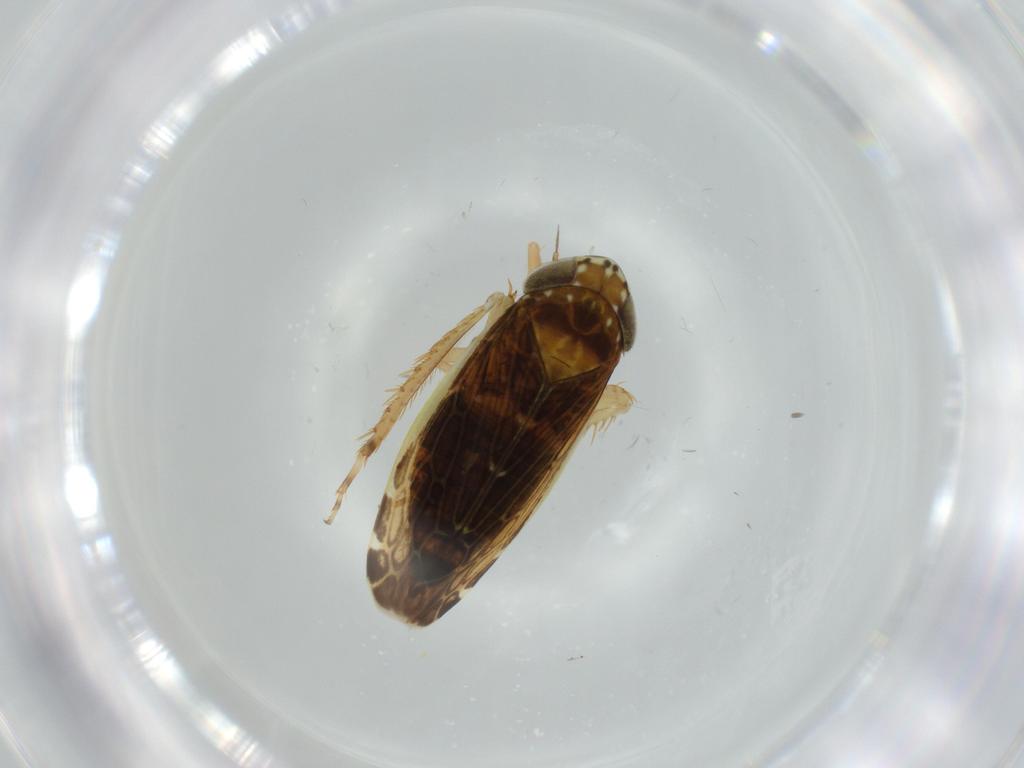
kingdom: Animalia
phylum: Arthropoda
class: Insecta
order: Hemiptera
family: Cicadellidae
